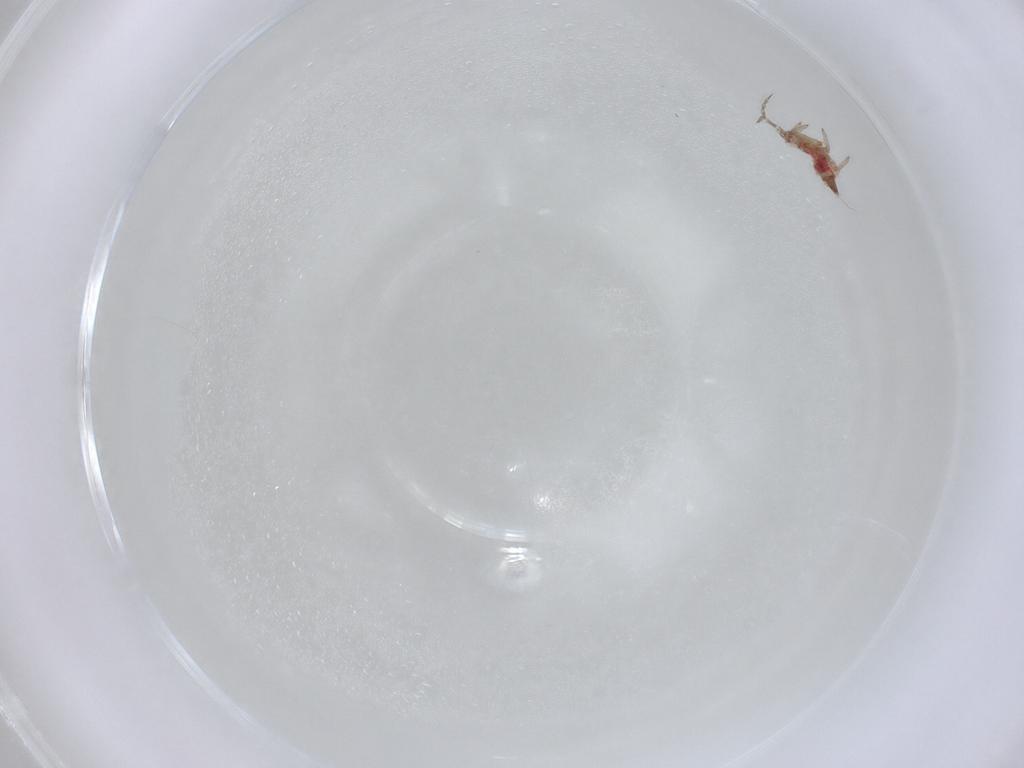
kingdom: Animalia
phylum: Arthropoda
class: Insecta
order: Thysanoptera
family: Phlaeothripidae
